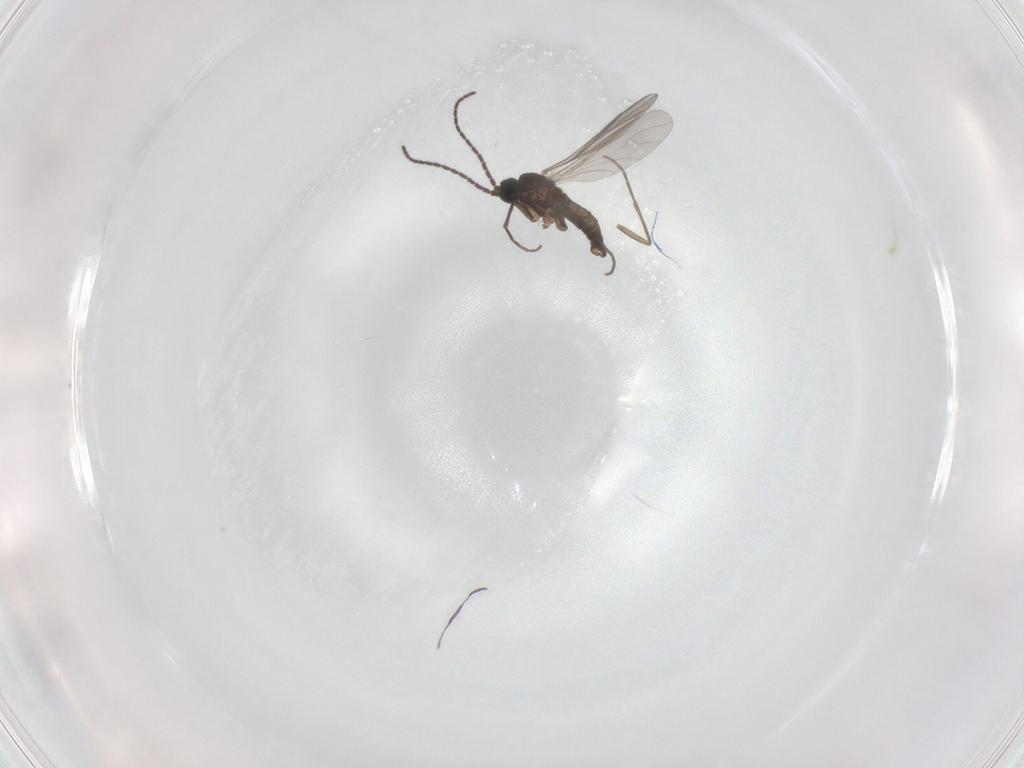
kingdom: Animalia
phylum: Arthropoda
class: Insecta
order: Diptera
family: Sciaridae
